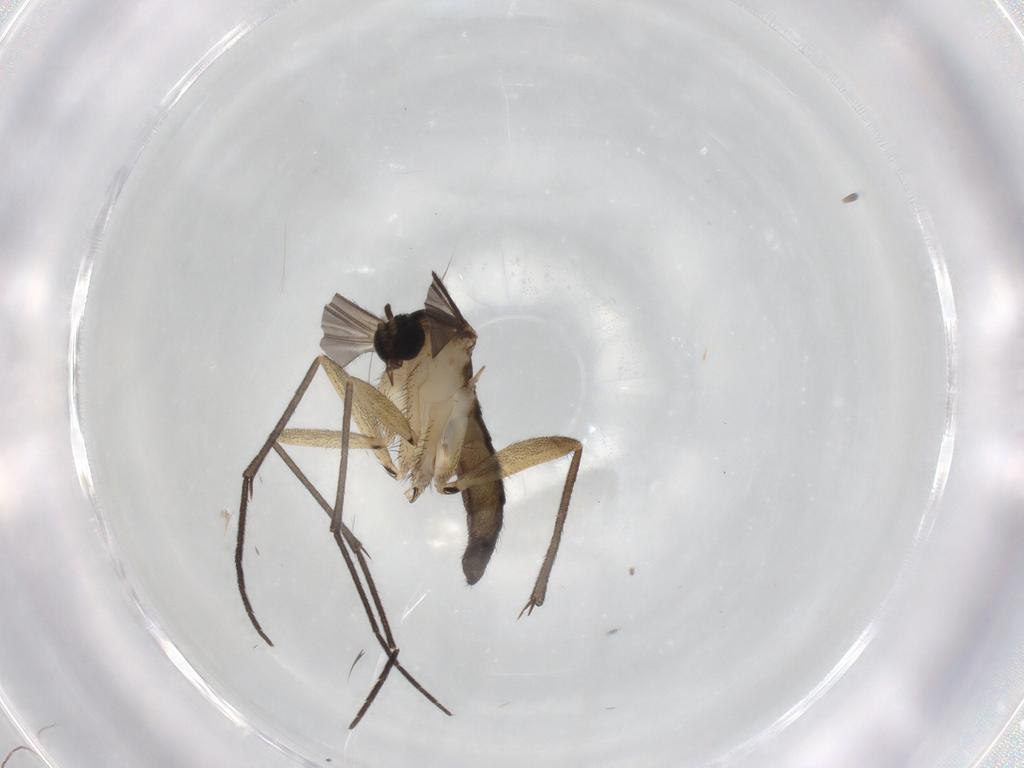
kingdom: Animalia
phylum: Arthropoda
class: Insecta
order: Diptera
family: Sciaridae
